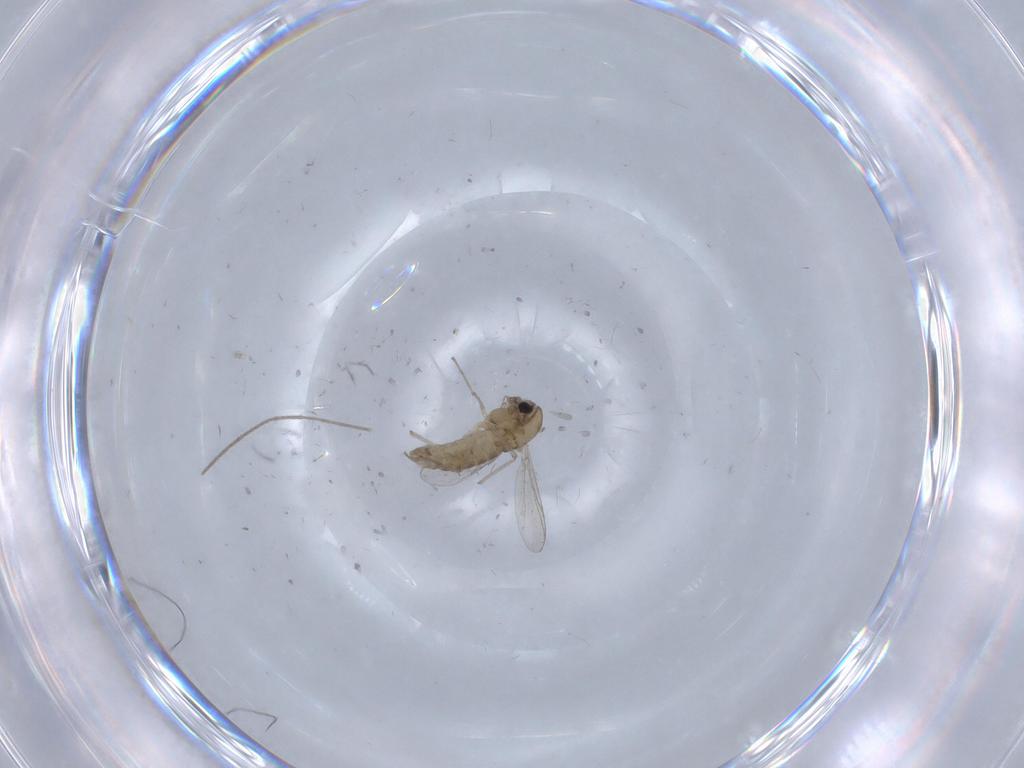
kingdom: Animalia
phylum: Arthropoda
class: Insecta
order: Diptera
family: Chironomidae
